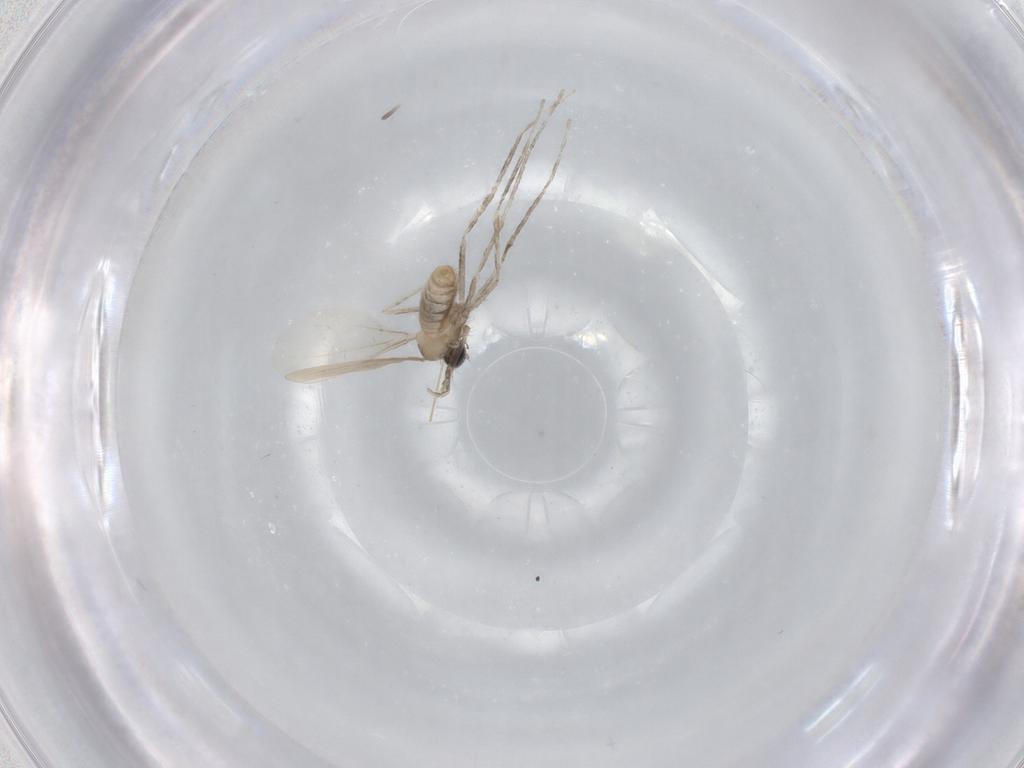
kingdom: Animalia
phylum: Arthropoda
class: Insecta
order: Diptera
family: Cecidomyiidae
